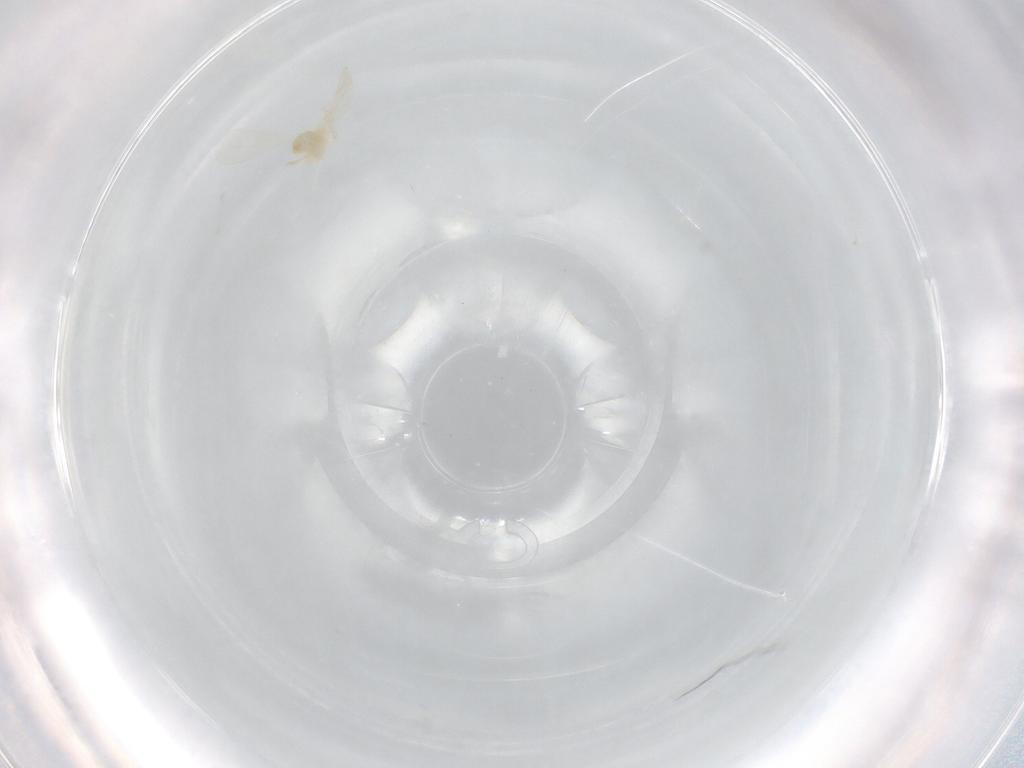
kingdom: Animalia
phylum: Arthropoda
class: Insecta
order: Diptera
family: Cecidomyiidae
